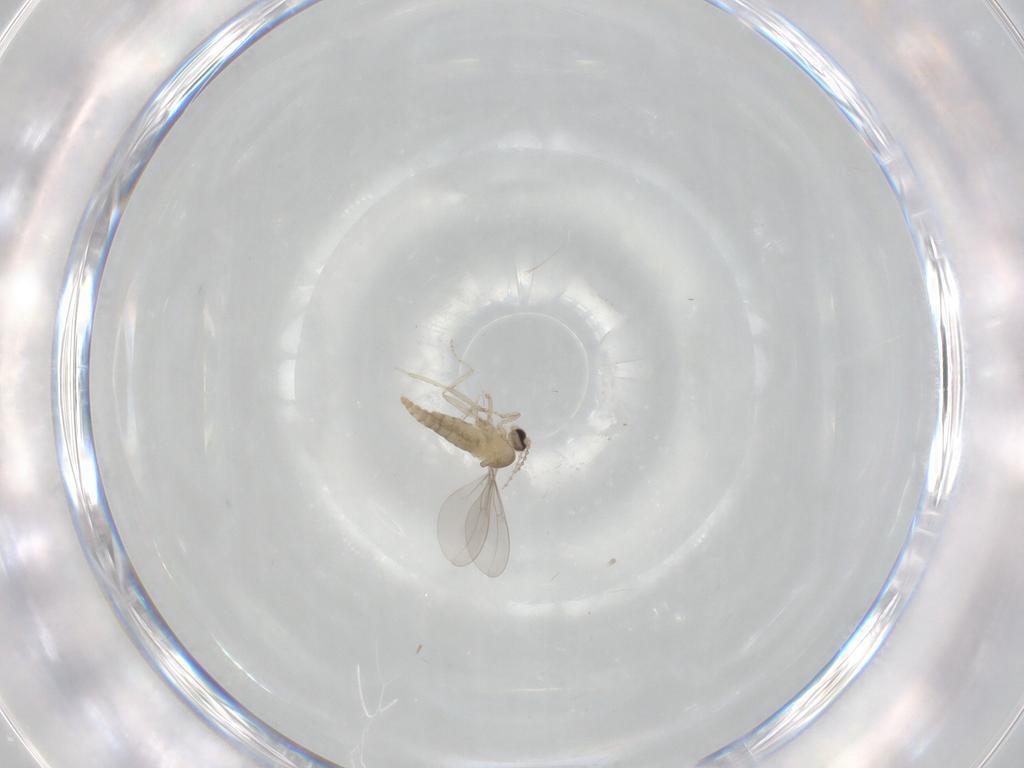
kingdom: Animalia
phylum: Arthropoda
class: Insecta
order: Diptera
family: Cecidomyiidae
